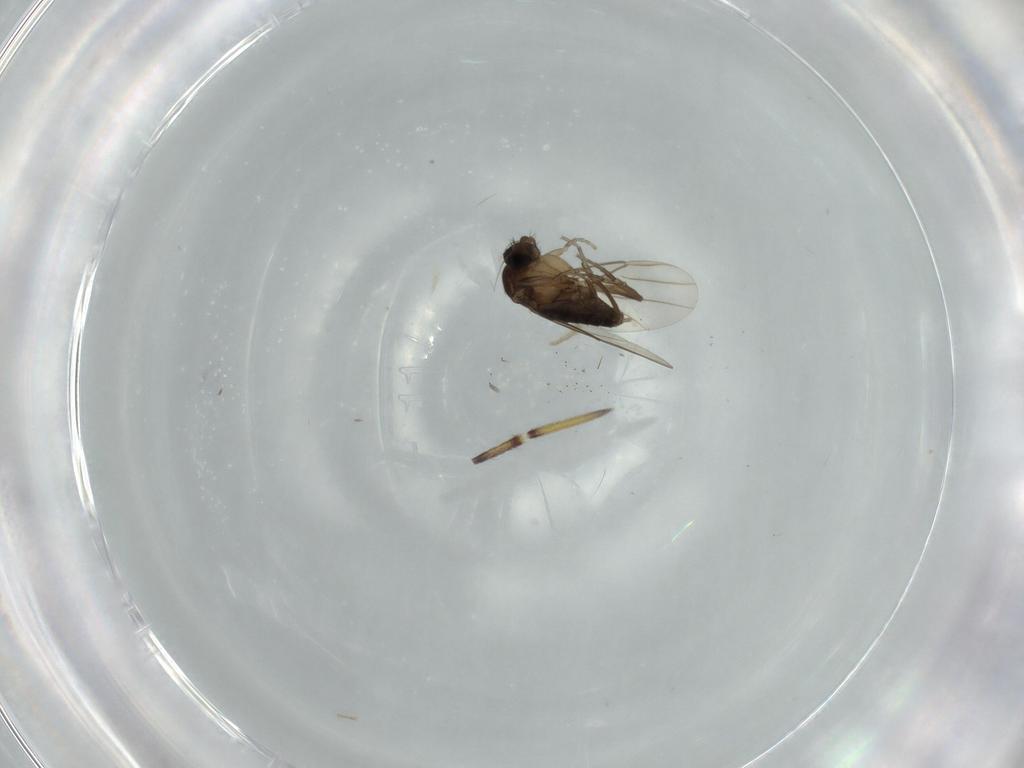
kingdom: Animalia
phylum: Arthropoda
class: Insecta
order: Diptera
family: Phoridae
